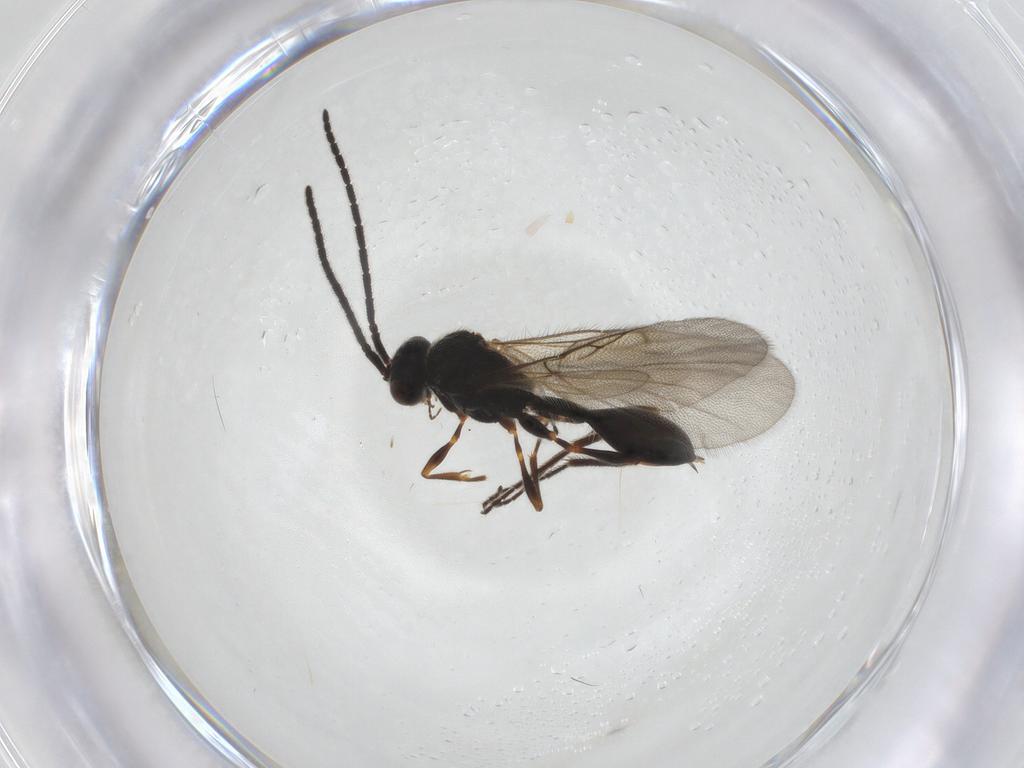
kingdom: Animalia
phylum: Arthropoda
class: Insecta
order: Hymenoptera
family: Diapriidae
